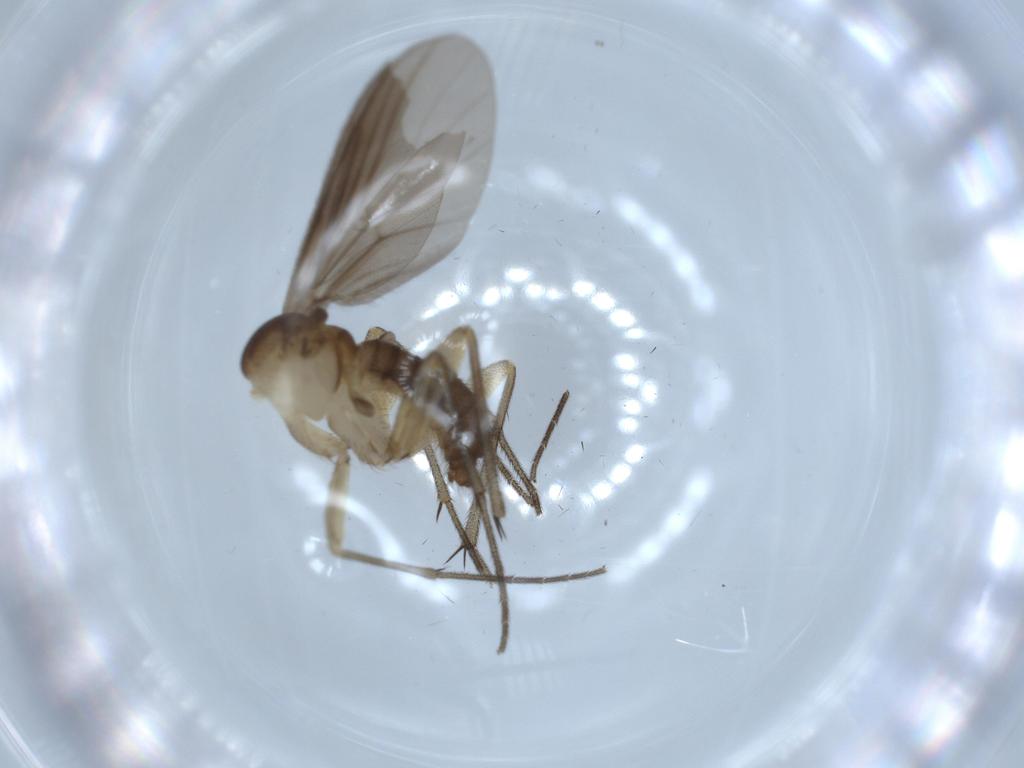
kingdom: Animalia
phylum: Arthropoda
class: Insecta
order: Diptera
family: Diadocidiidae
